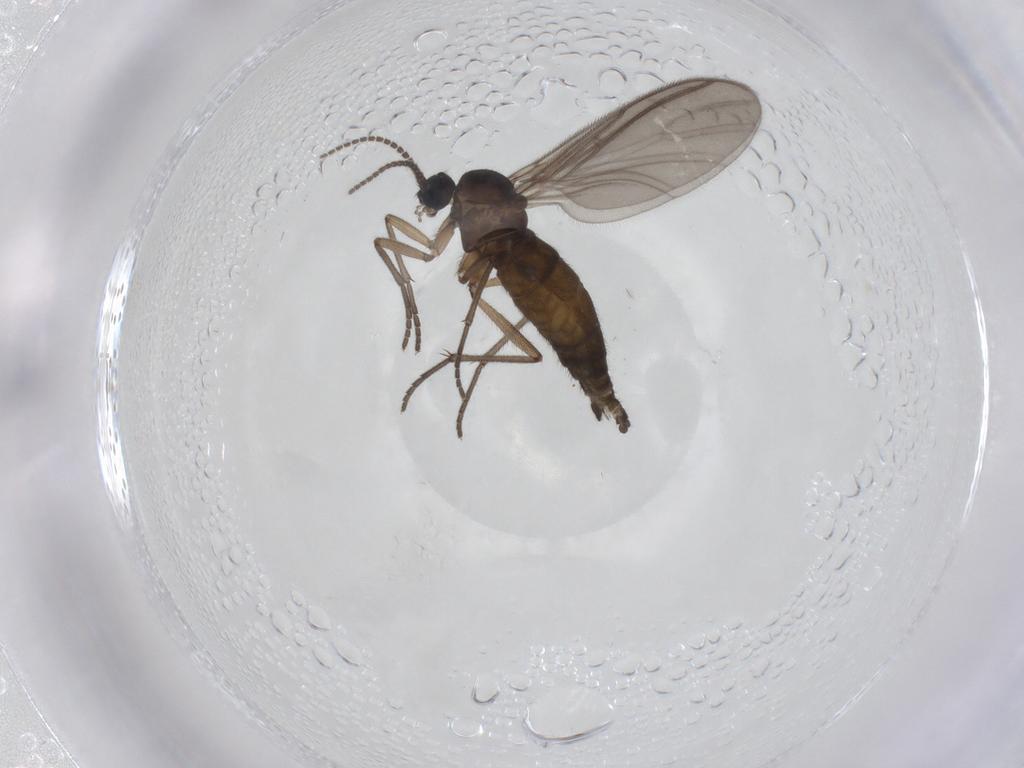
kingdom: Animalia
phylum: Arthropoda
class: Insecta
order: Diptera
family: Sciaridae
